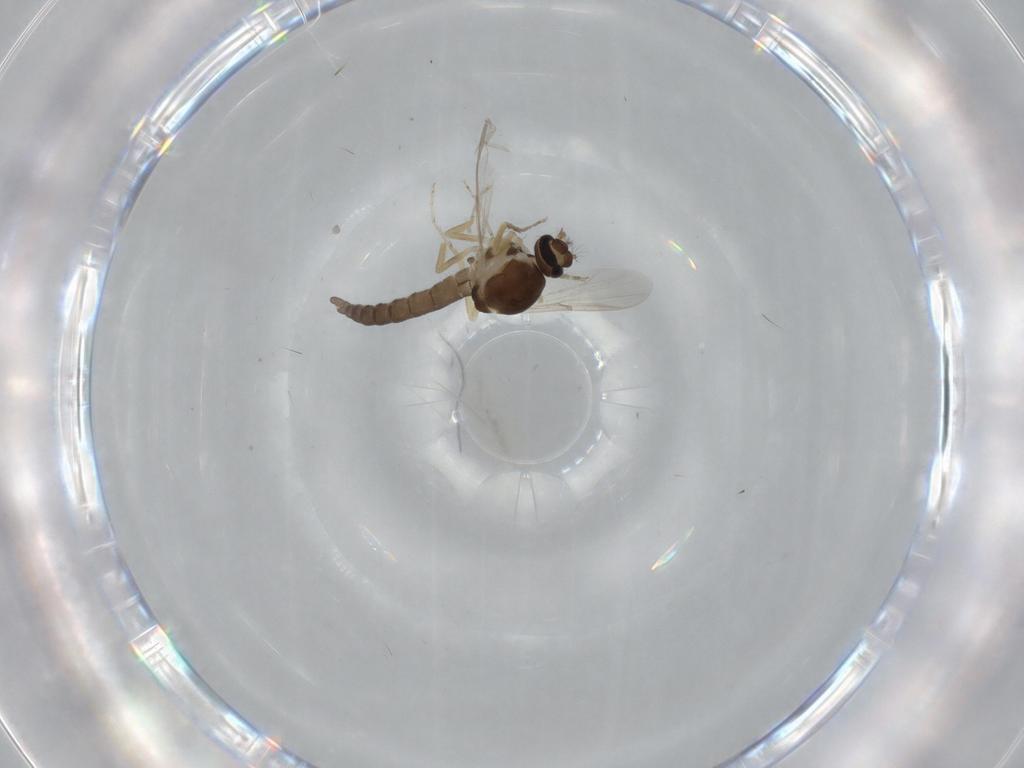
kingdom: Animalia
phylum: Arthropoda
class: Insecta
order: Diptera
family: Ceratopogonidae
